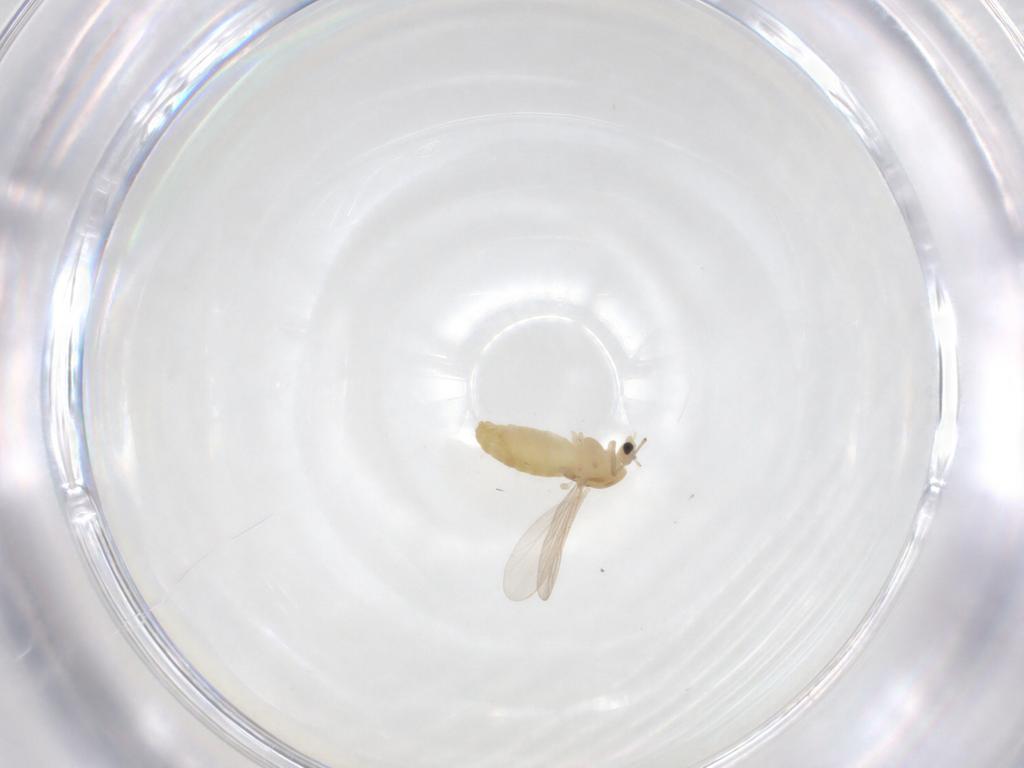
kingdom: Animalia
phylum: Arthropoda
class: Insecta
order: Diptera
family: Chironomidae
